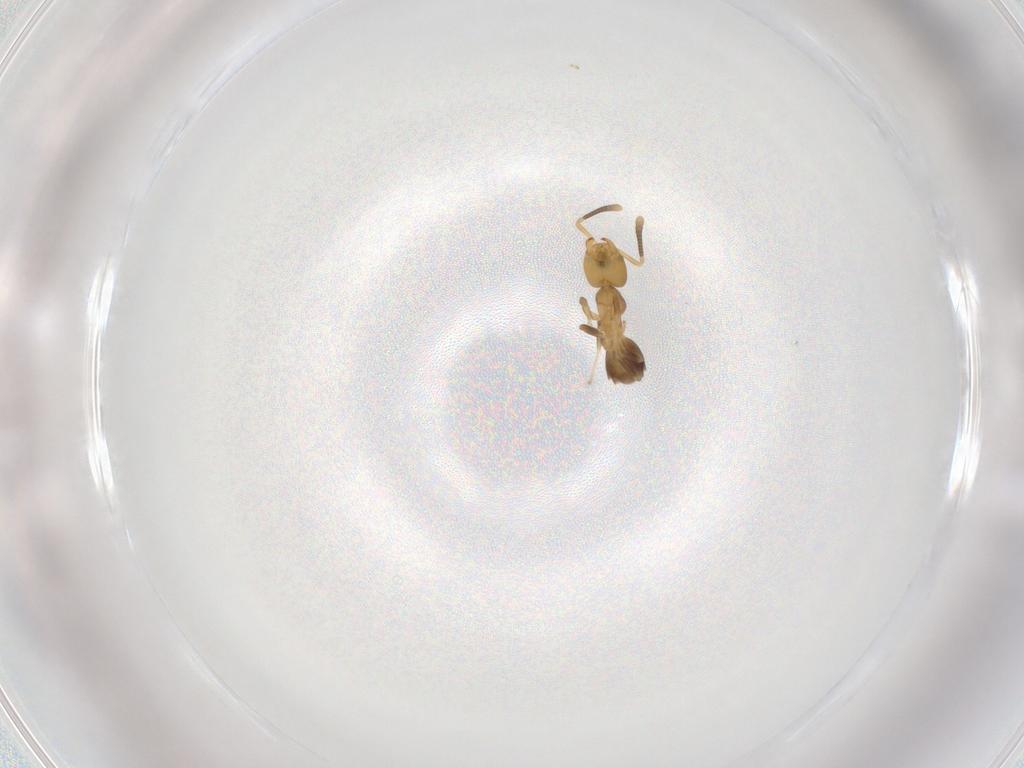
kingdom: Animalia
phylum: Arthropoda
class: Insecta
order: Hymenoptera
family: Formicidae
